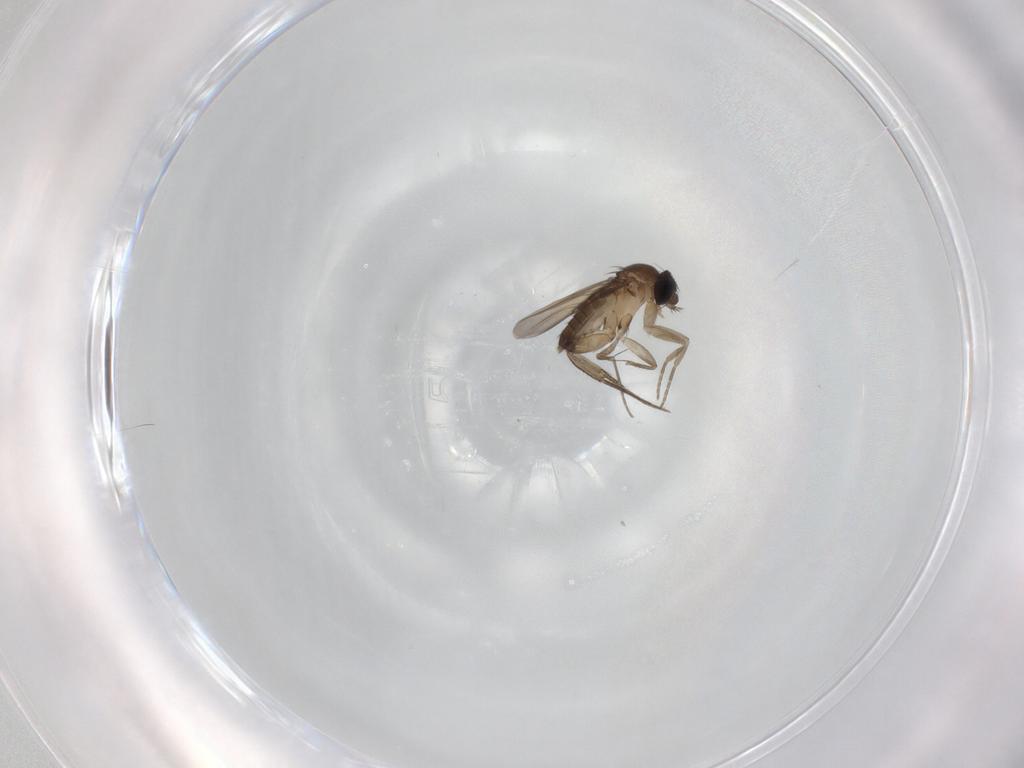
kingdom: Animalia
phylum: Arthropoda
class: Insecta
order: Diptera
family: Phoridae
